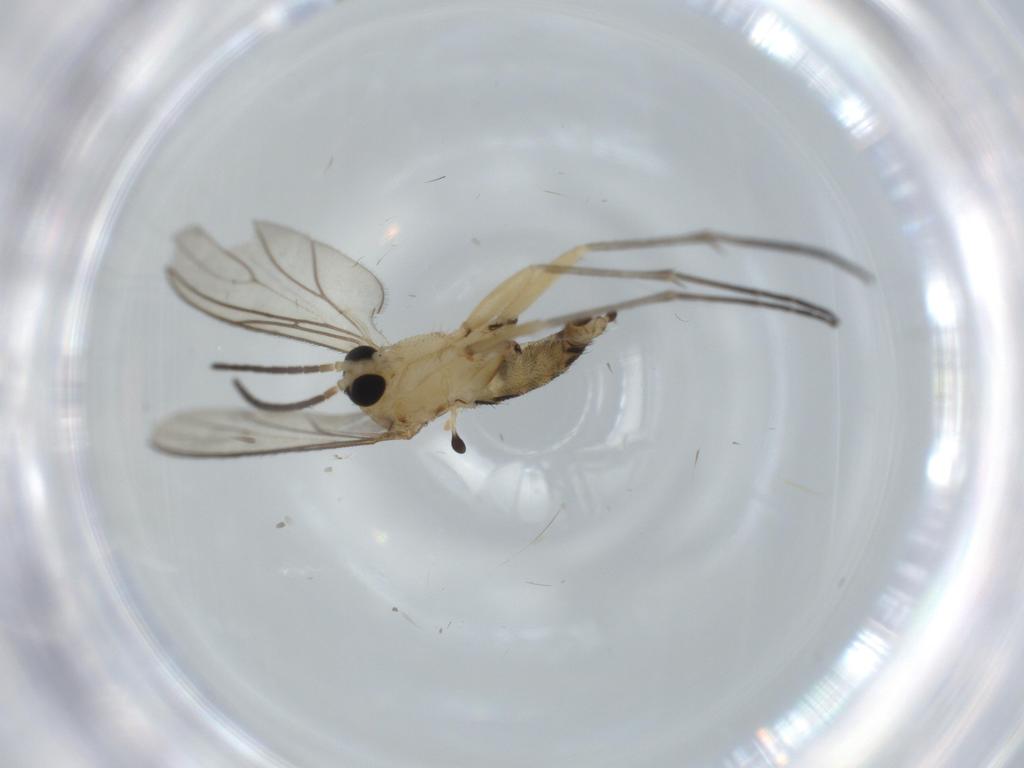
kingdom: Animalia
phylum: Arthropoda
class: Insecta
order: Diptera
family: Sciaridae
